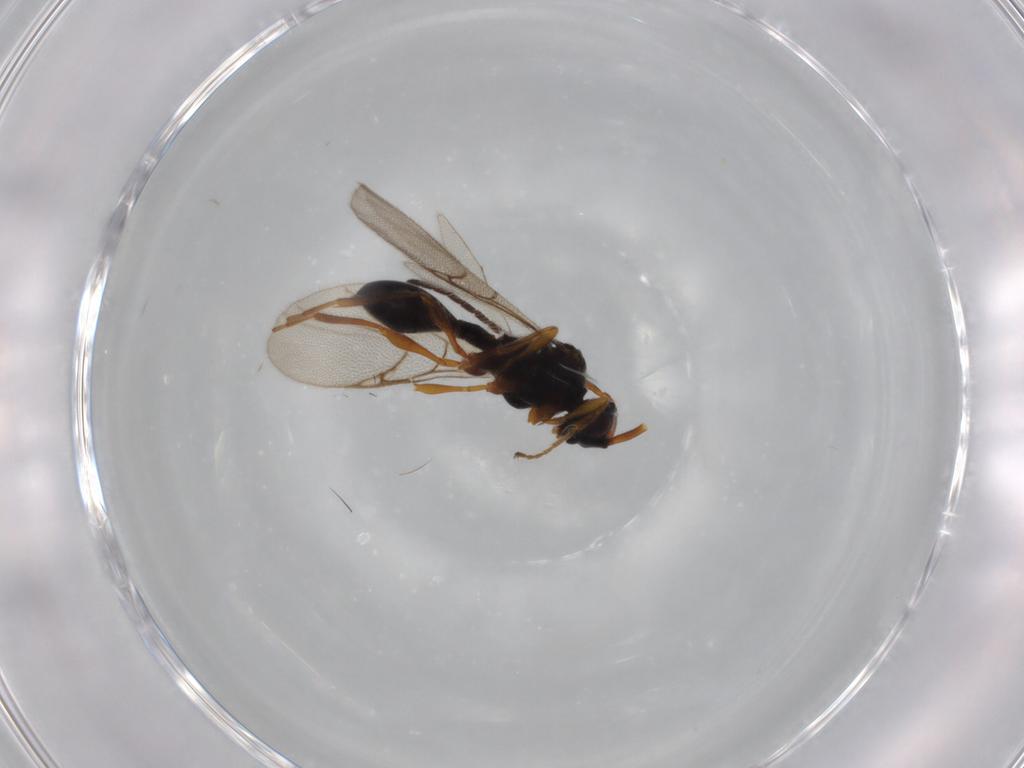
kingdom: Animalia
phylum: Arthropoda
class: Insecta
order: Hymenoptera
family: Diapriidae
